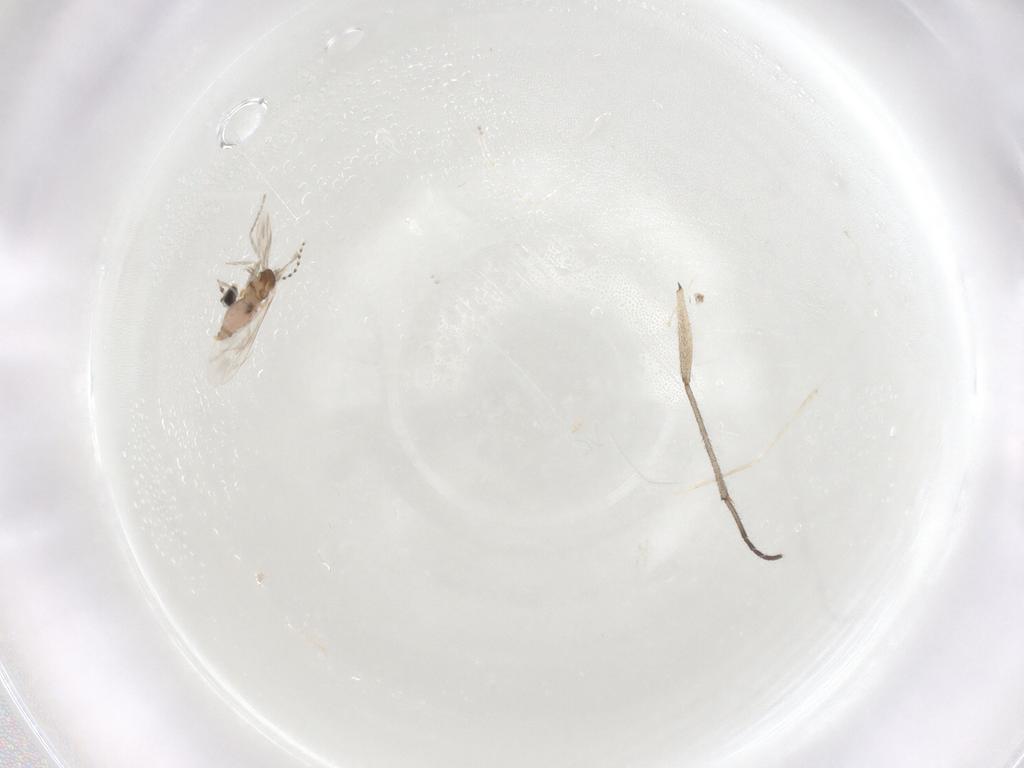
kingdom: Animalia
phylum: Arthropoda
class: Insecta
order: Diptera
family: Sciaridae
